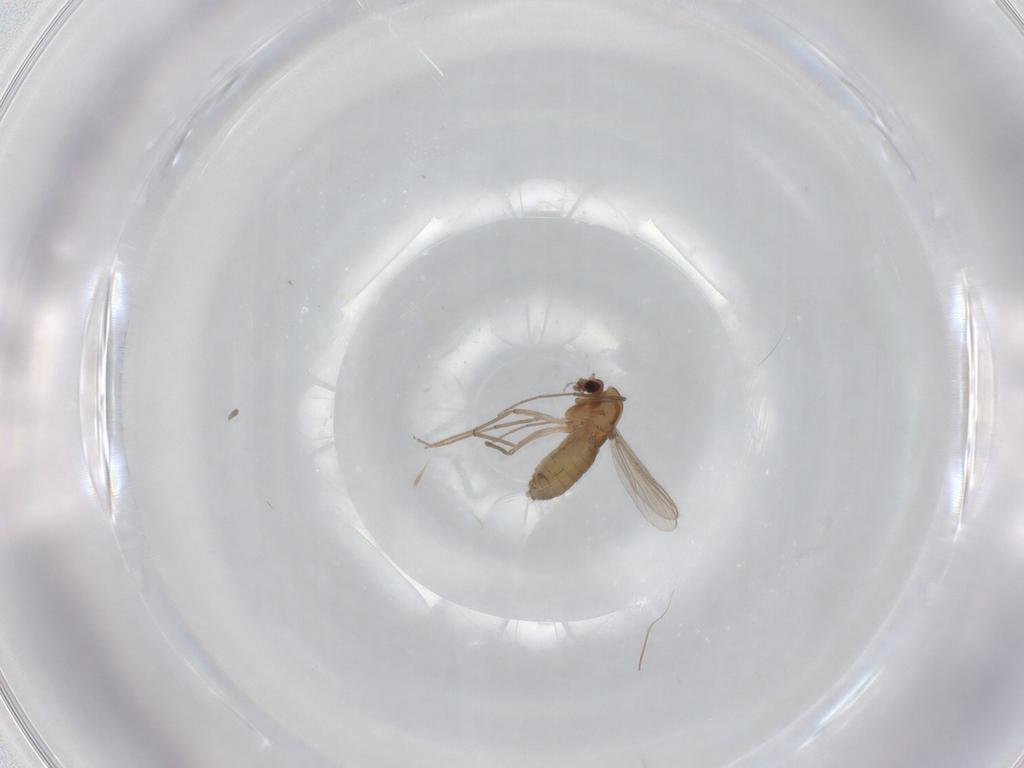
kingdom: Animalia
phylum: Arthropoda
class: Insecta
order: Diptera
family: Chironomidae
